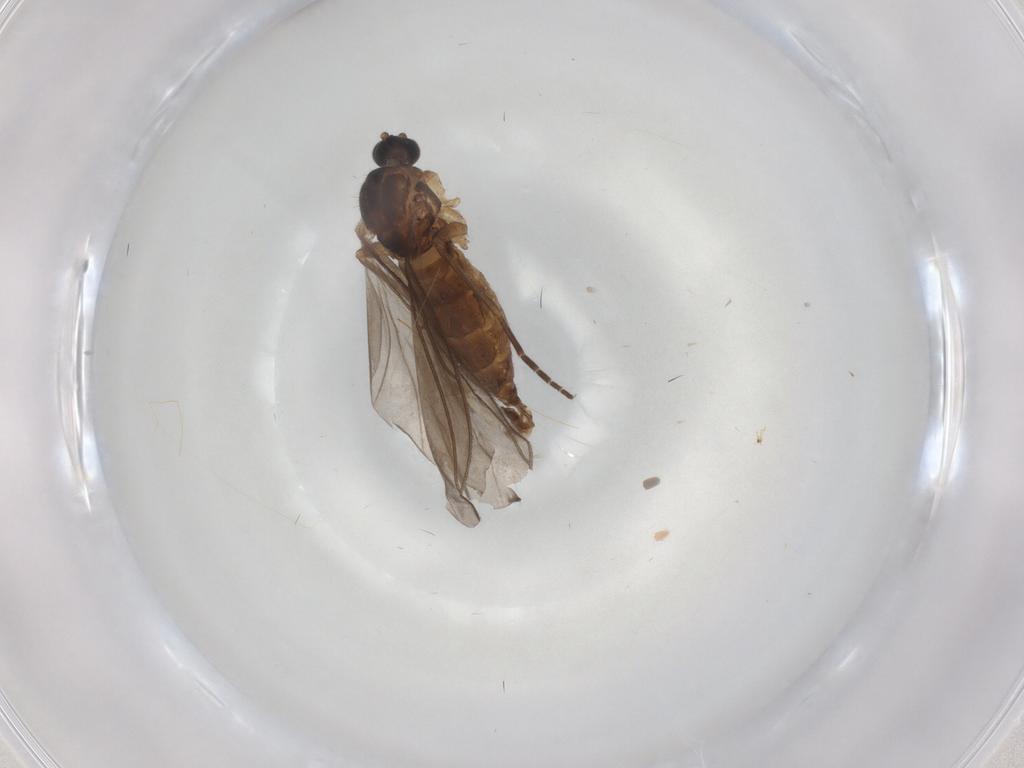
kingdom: Animalia
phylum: Arthropoda
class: Insecta
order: Diptera
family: Sciaridae
